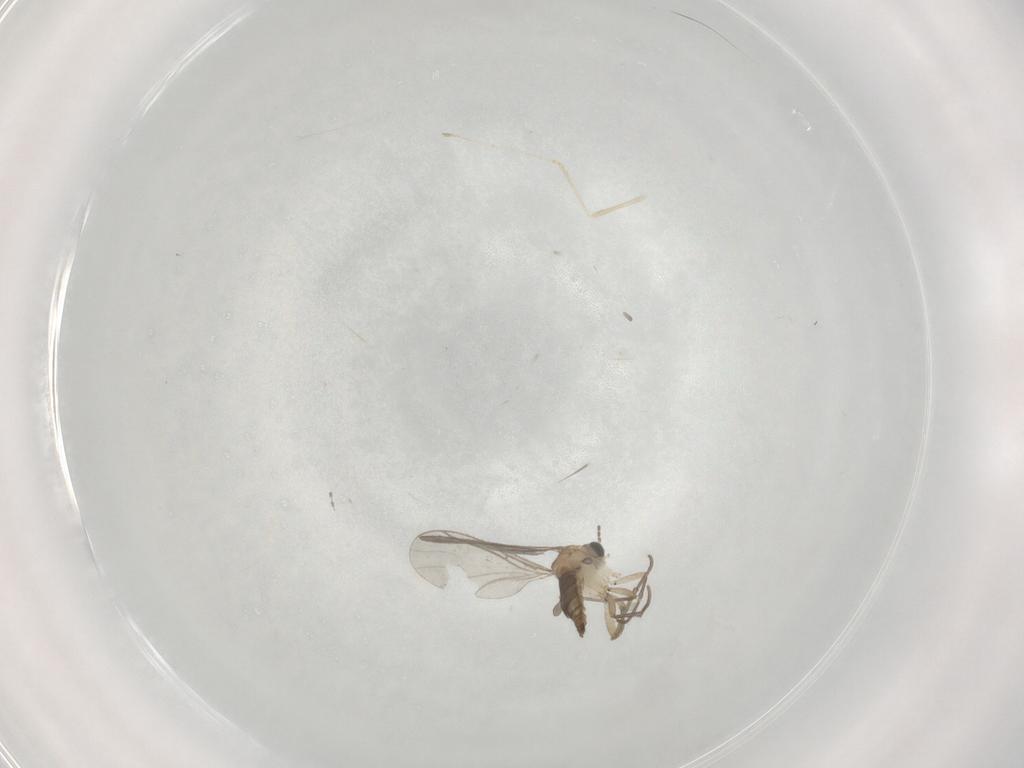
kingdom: Animalia
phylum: Arthropoda
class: Insecta
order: Diptera
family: Sciaridae
